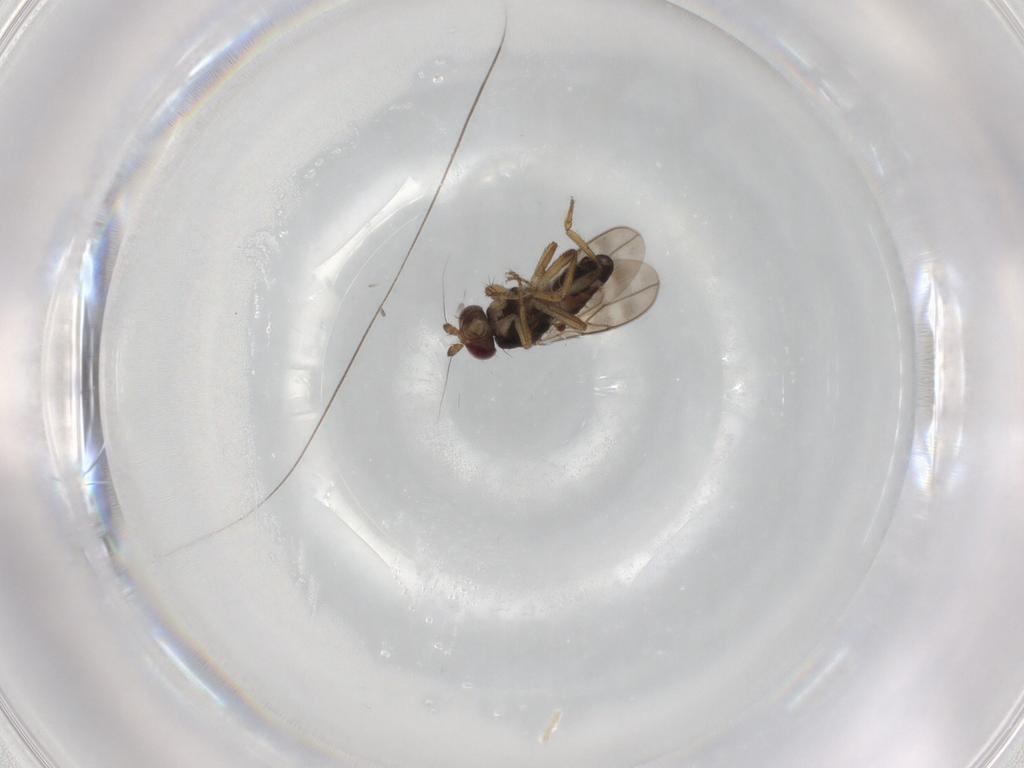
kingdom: Animalia
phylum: Arthropoda
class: Insecta
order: Diptera
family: Sphaeroceridae
